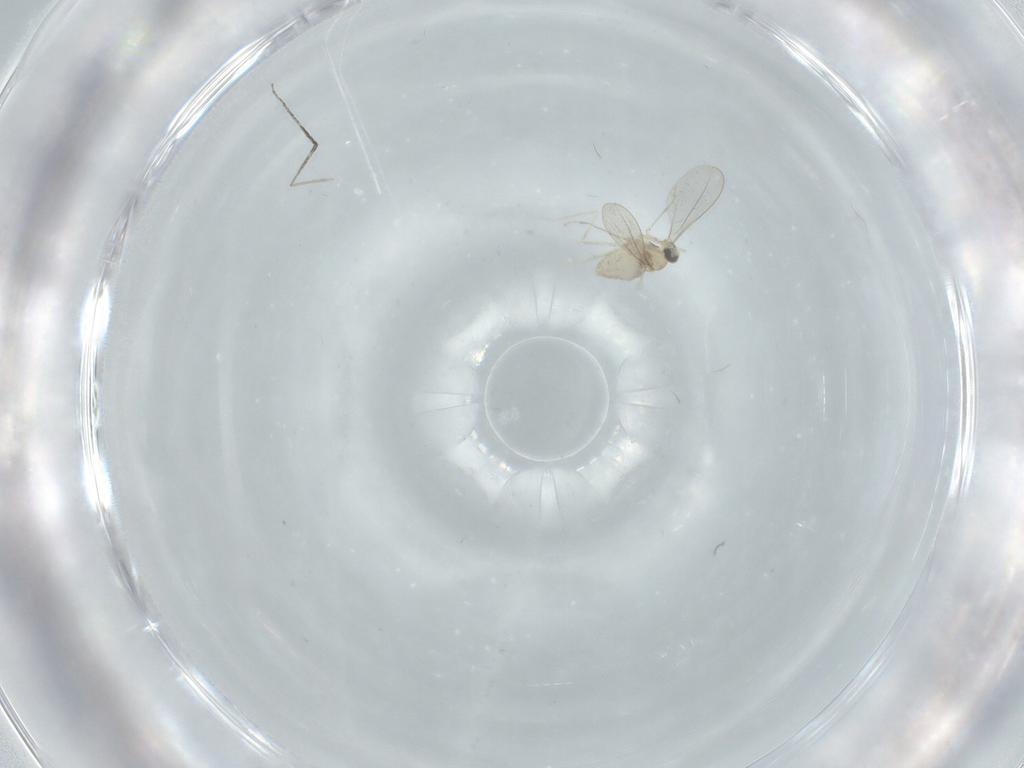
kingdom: Animalia
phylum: Arthropoda
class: Insecta
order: Diptera
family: Cecidomyiidae
